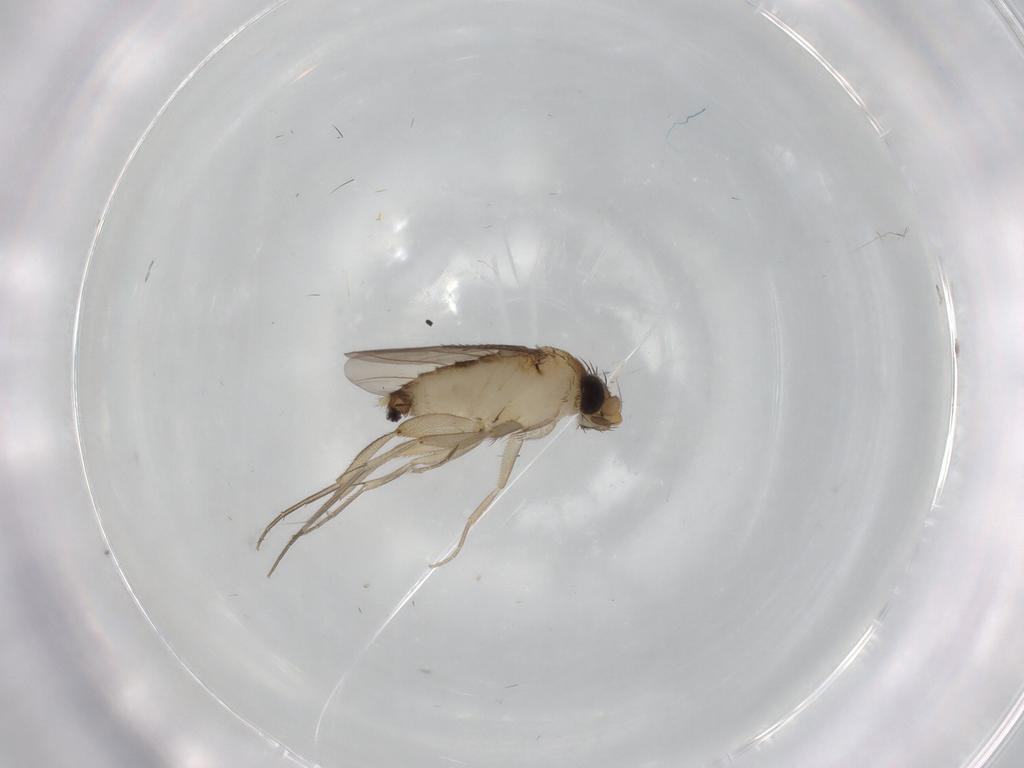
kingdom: Animalia
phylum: Arthropoda
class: Insecta
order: Diptera
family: Phoridae
